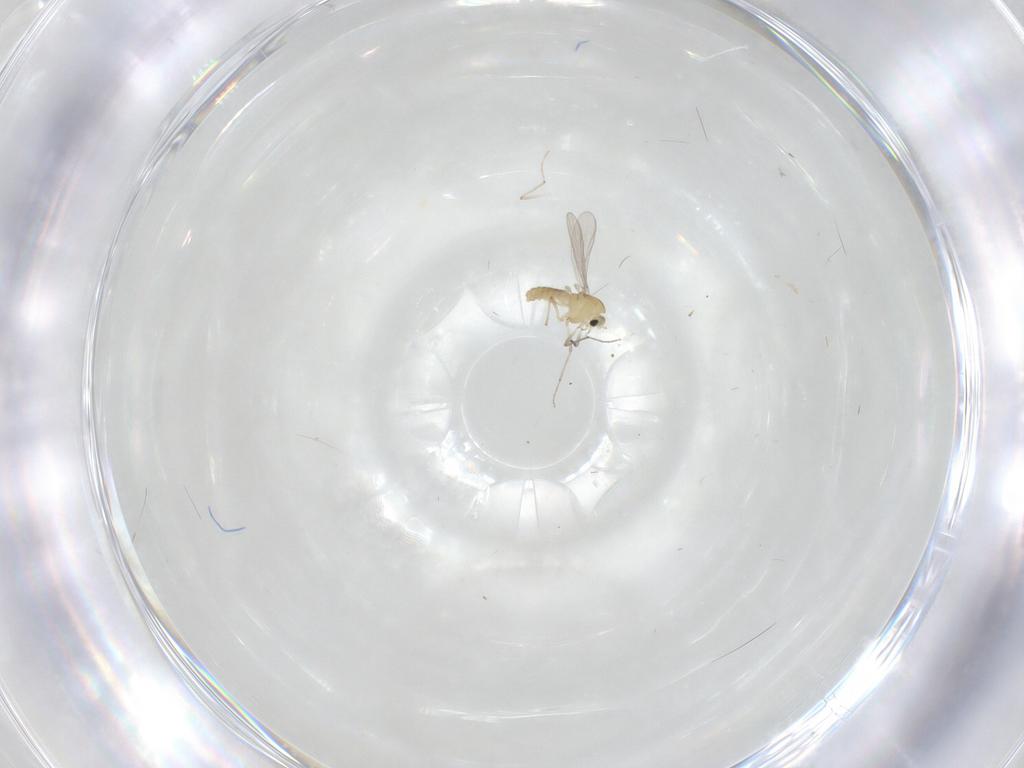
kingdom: Animalia
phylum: Arthropoda
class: Insecta
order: Diptera
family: Chironomidae
